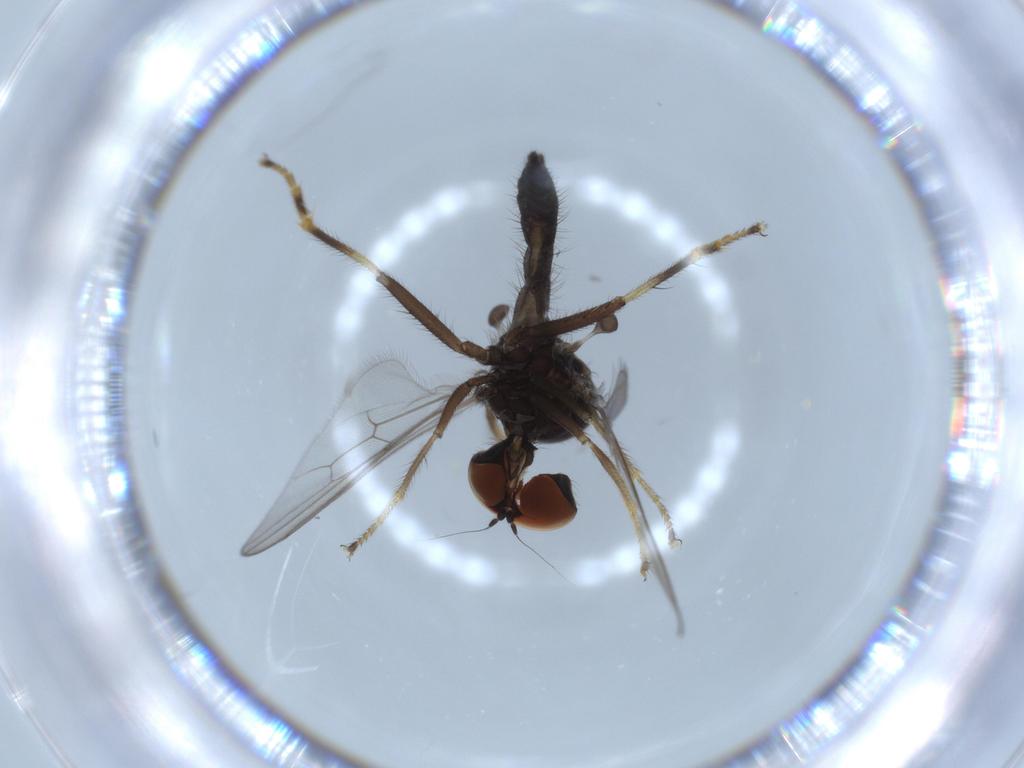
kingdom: Animalia
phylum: Arthropoda
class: Insecta
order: Diptera
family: Hybotidae
